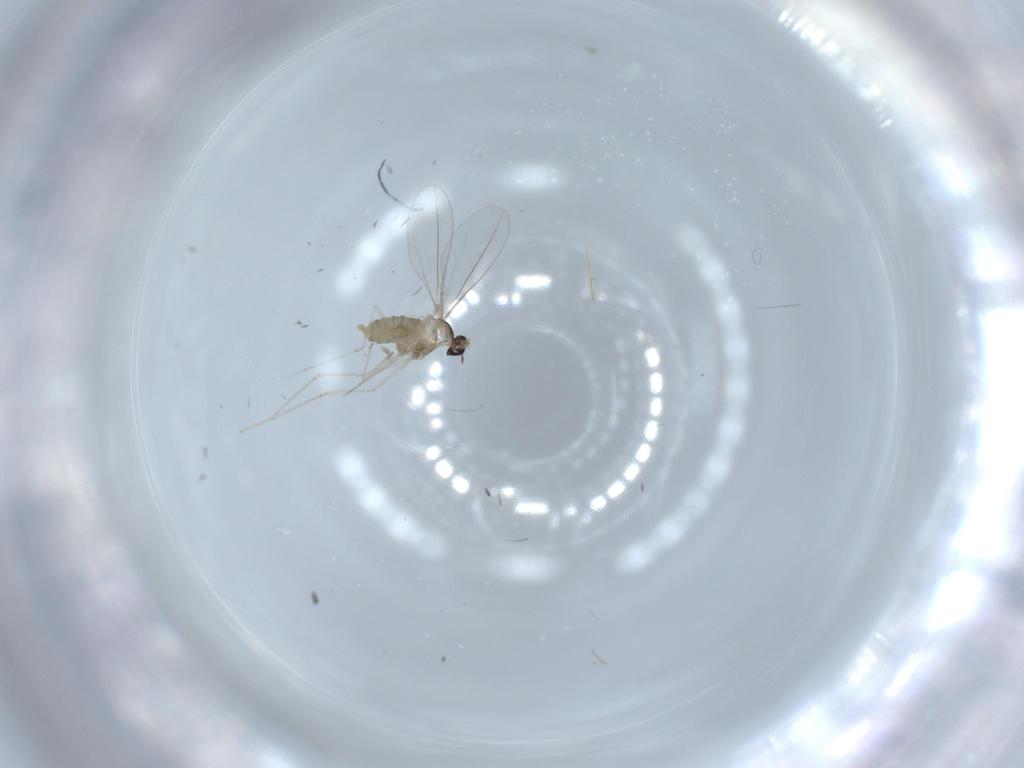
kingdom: Animalia
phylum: Arthropoda
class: Insecta
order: Diptera
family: Cecidomyiidae
